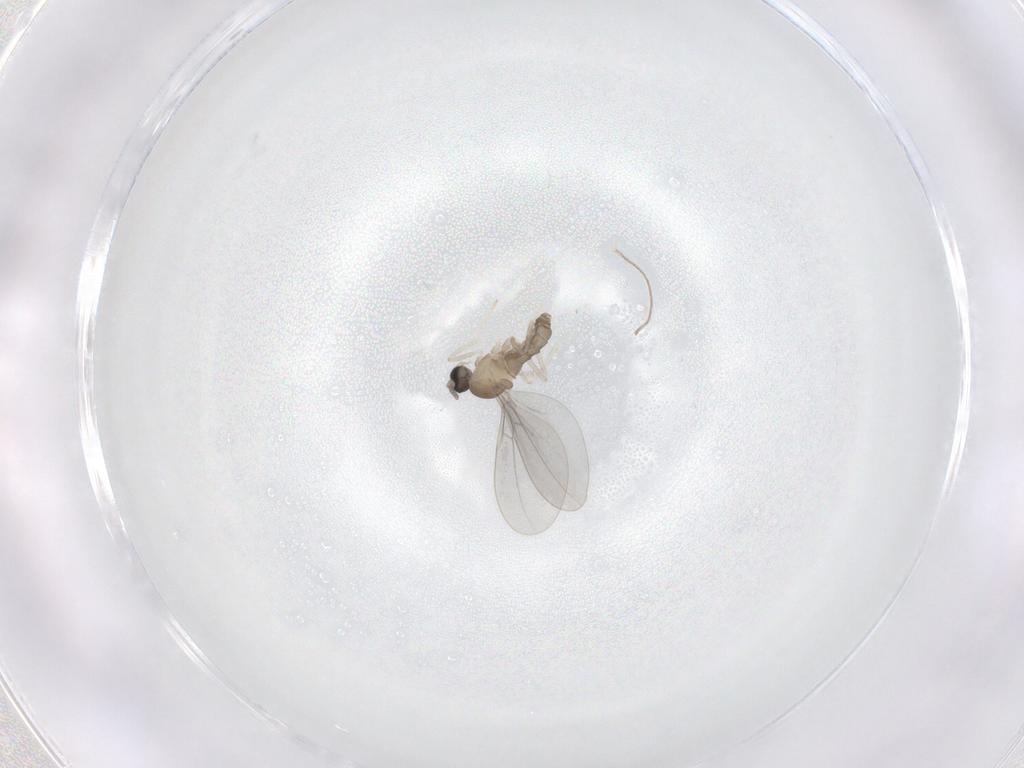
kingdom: Animalia
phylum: Arthropoda
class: Insecta
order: Diptera
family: Cecidomyiidae
